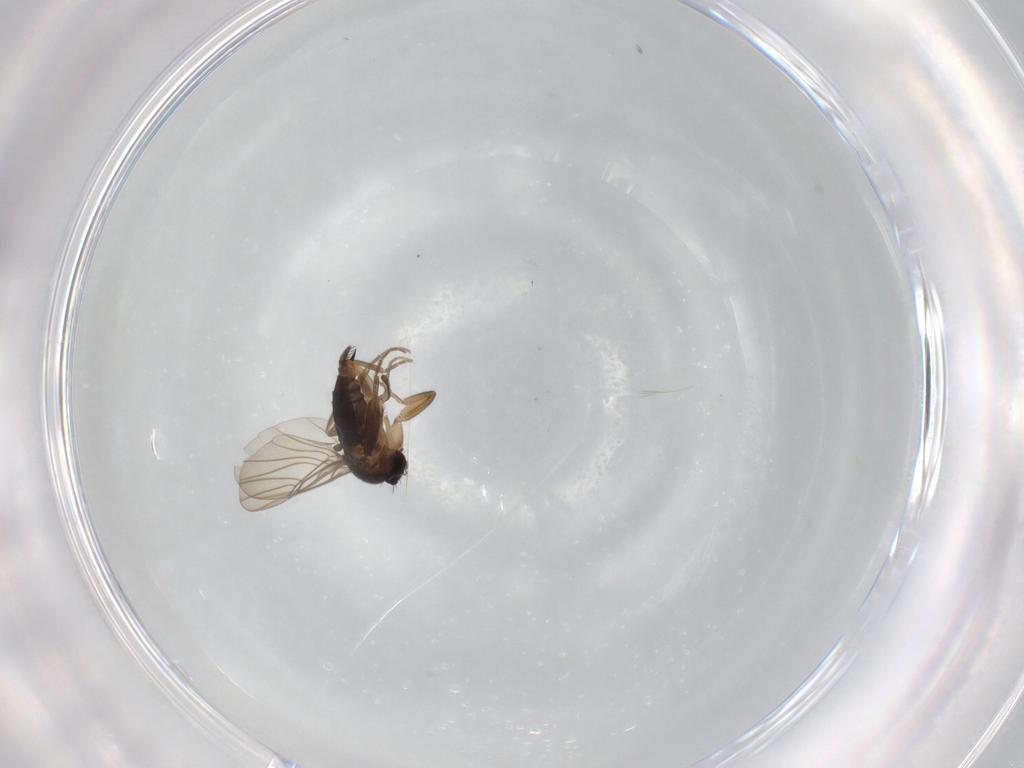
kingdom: Animalia
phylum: Arthropoda
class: Insecta
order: Diptera
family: Phoridae
